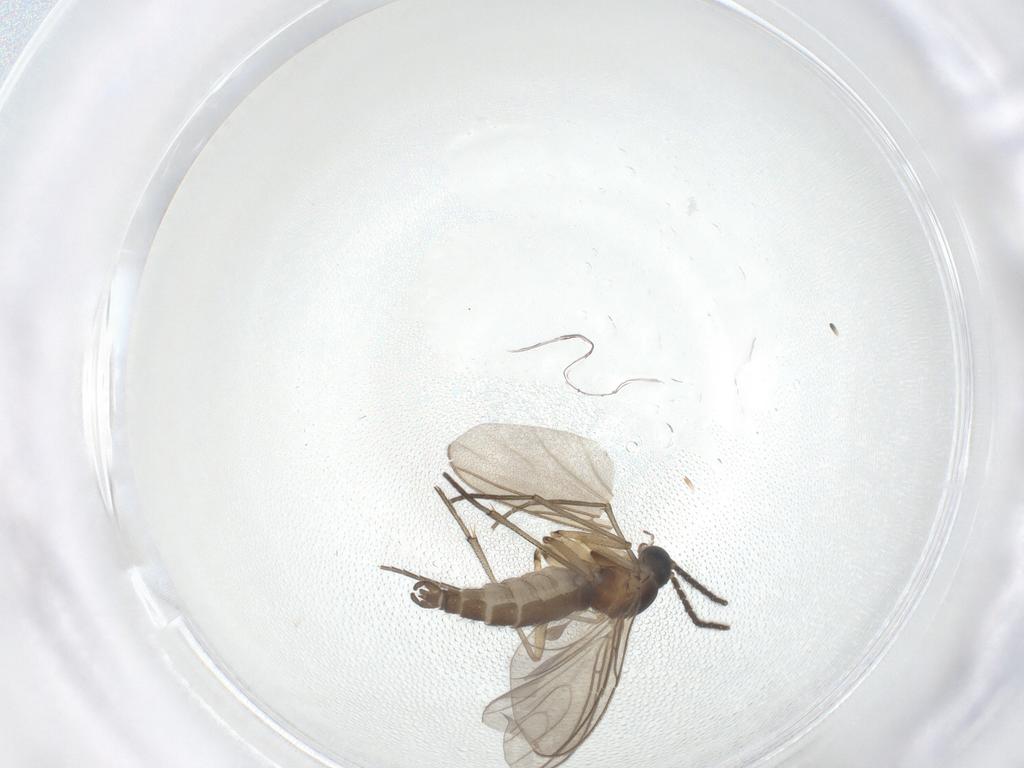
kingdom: Animalia
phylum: Arthropoda
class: Insecta
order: Diptera
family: Sciaridae
